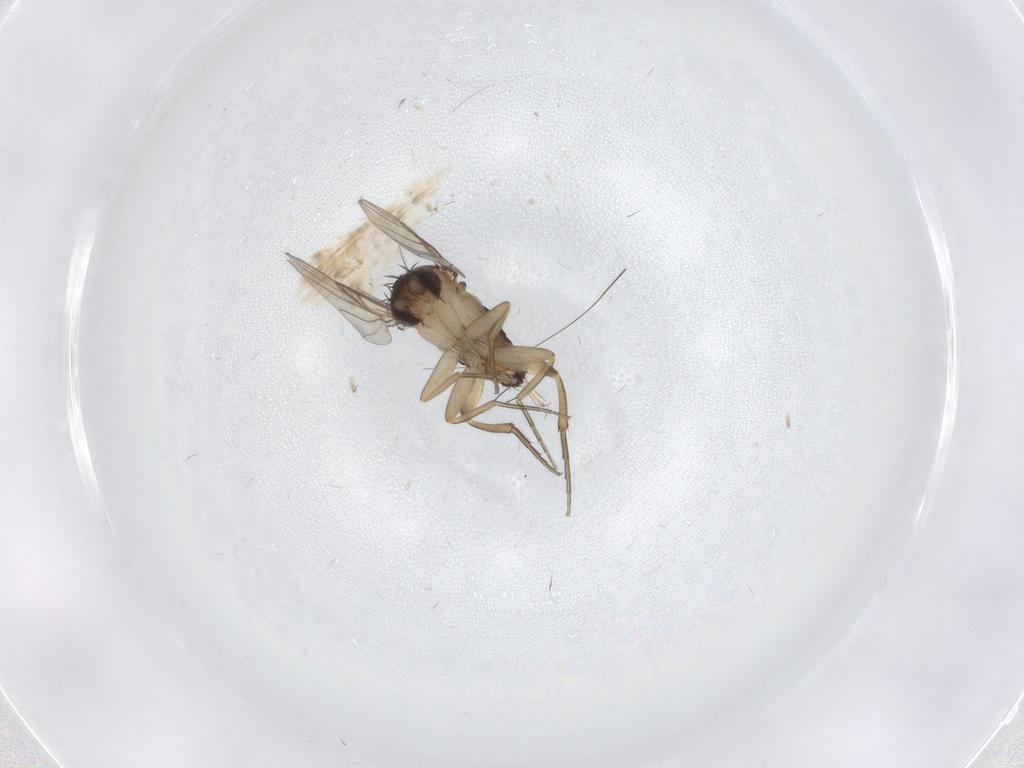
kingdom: Animalia
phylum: Arthropoda
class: Insecta
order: Diptera
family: Phoridae
